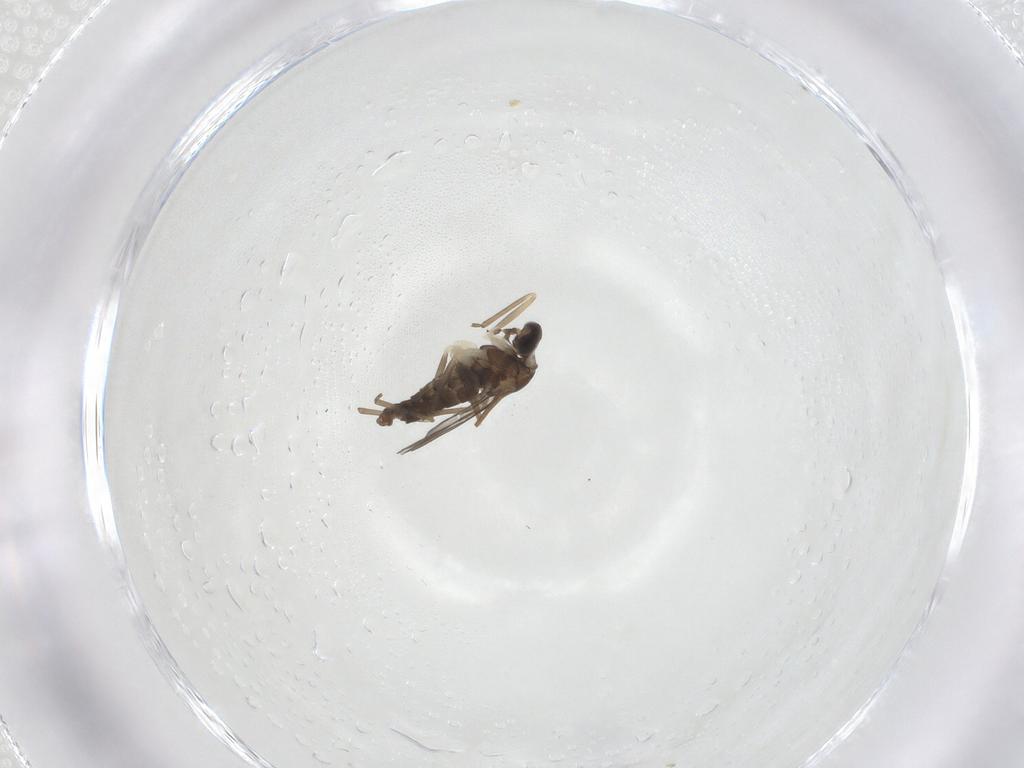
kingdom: Animalia
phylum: Arthropoda
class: Insecta
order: Diptera
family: Cecidomyiidae
